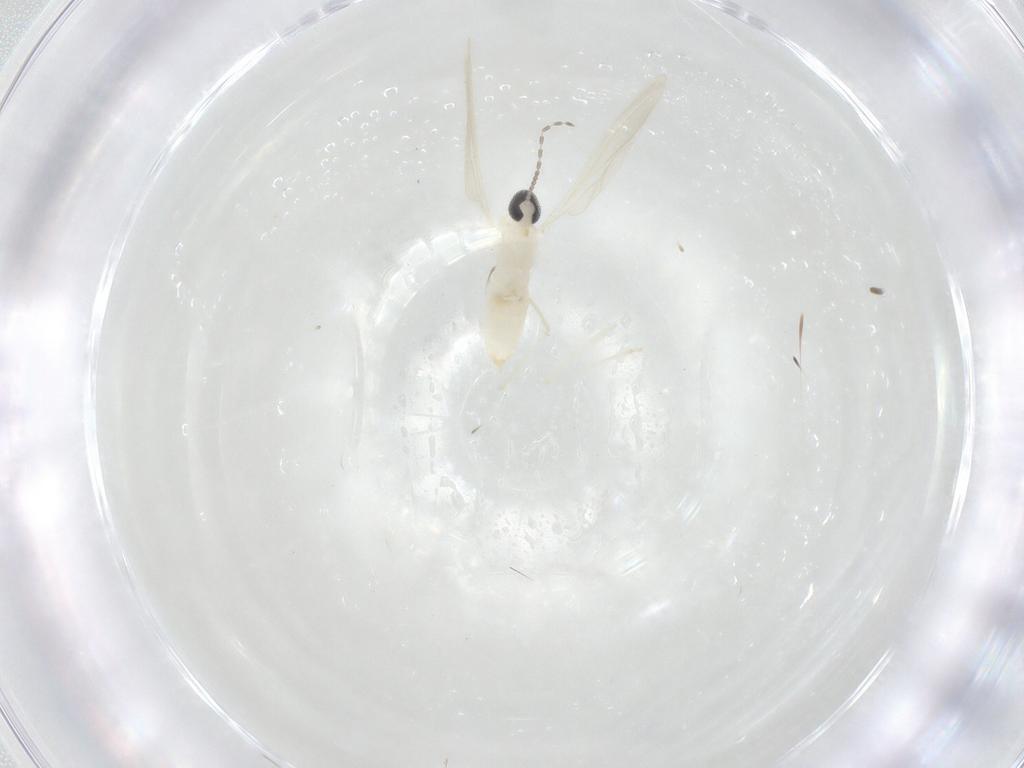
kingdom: Animalia
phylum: Arthropoda
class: Insecta
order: Diptera
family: Cecidomyiidae
